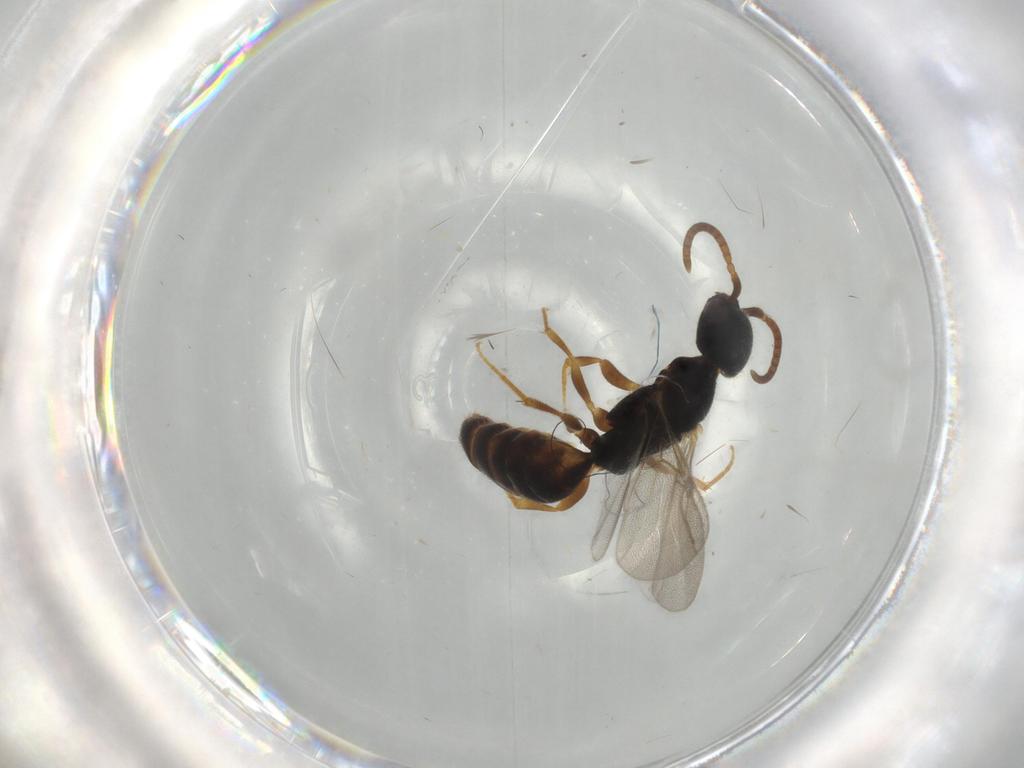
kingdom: Animalia
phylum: Arthropoda
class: Insecta
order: Hymenoptera
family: Bethylidae
